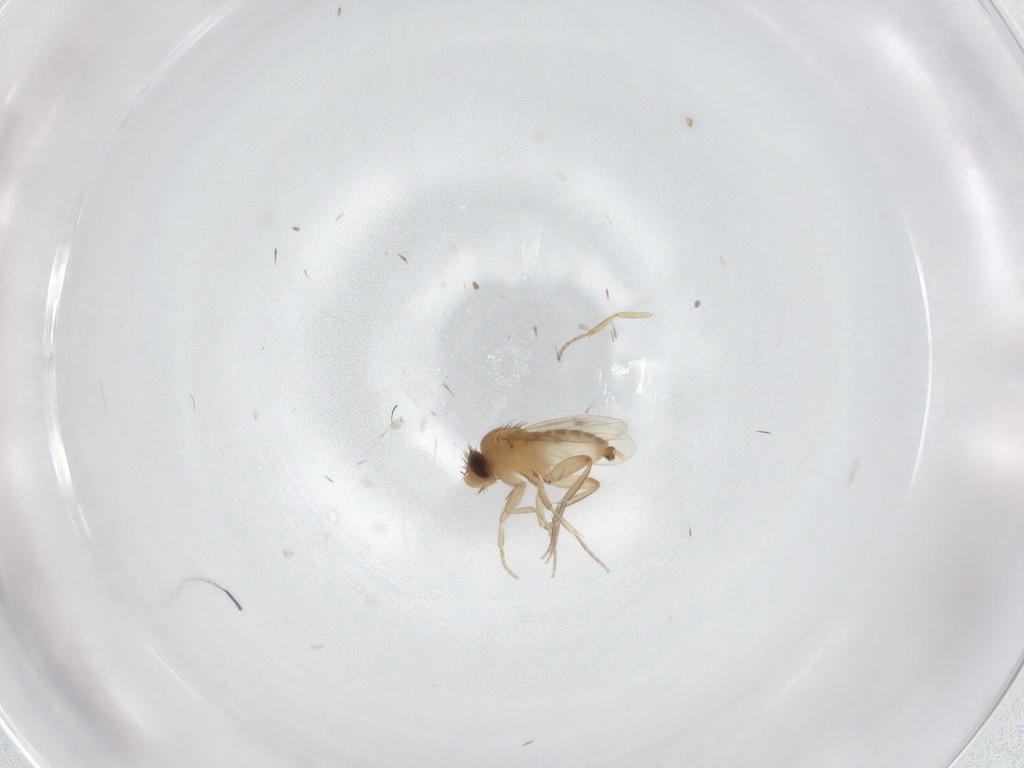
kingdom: Animalia
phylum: Arthropoda
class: Insecta
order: Diptera
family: Phoridae
